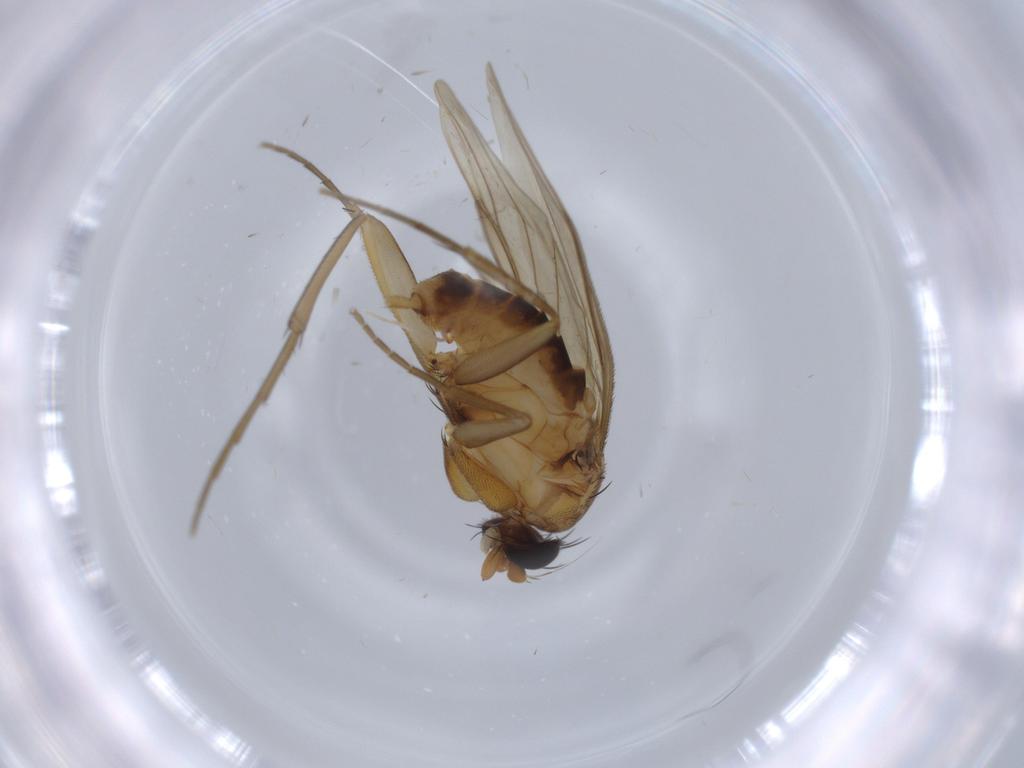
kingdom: Animalia
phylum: Arthropoda
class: Insecta
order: Diptera
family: Phoridae
